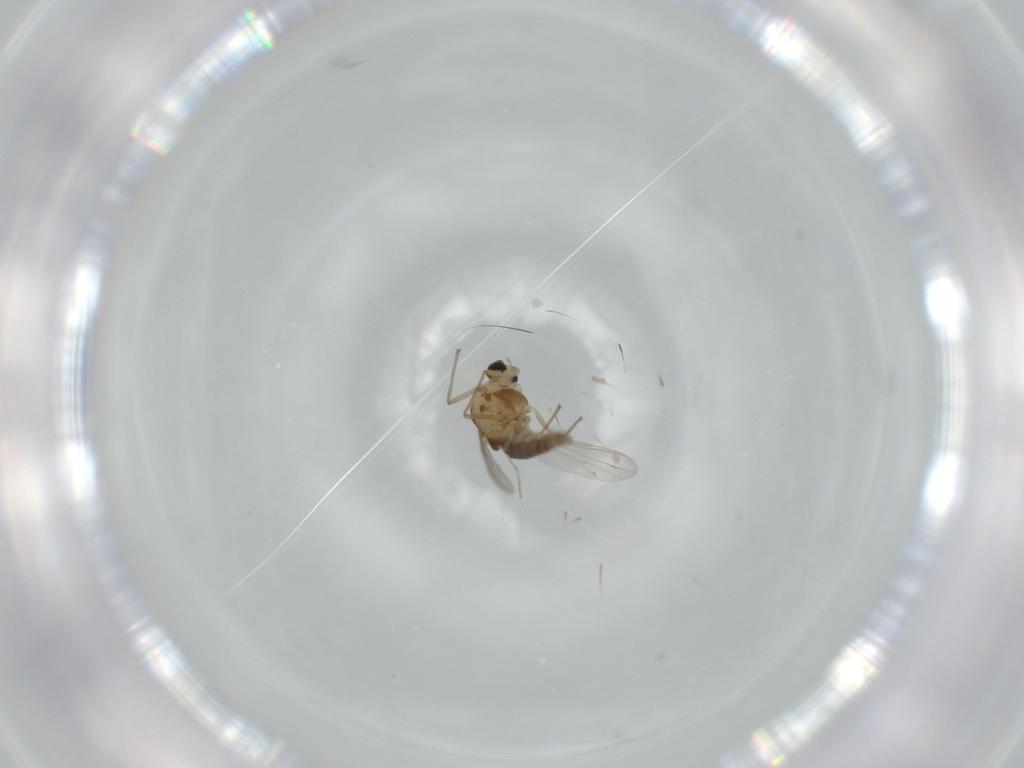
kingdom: Animalia
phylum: Arthropoda
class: Insecta
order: Diptera
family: Chironomidae
